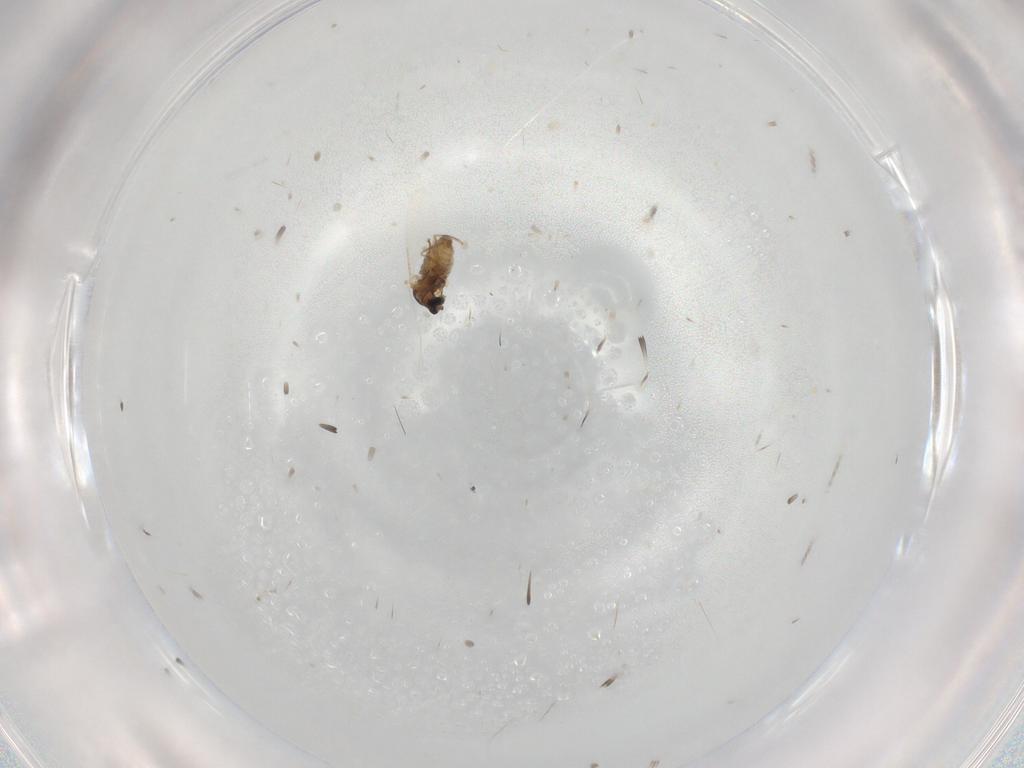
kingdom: Animalia
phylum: Arthropoda
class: Insecta
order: Diptera
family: Cecidomyiidae
